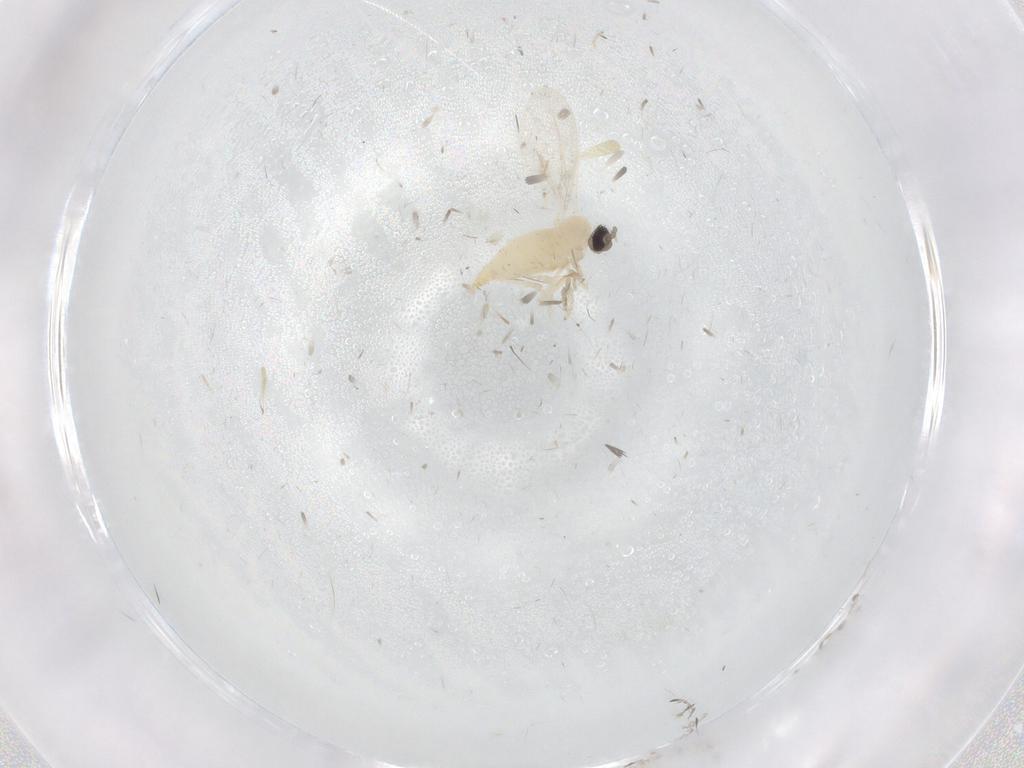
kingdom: Animalia
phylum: Arthropoda
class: Insecta
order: Diptera
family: Cecidomyiidae
